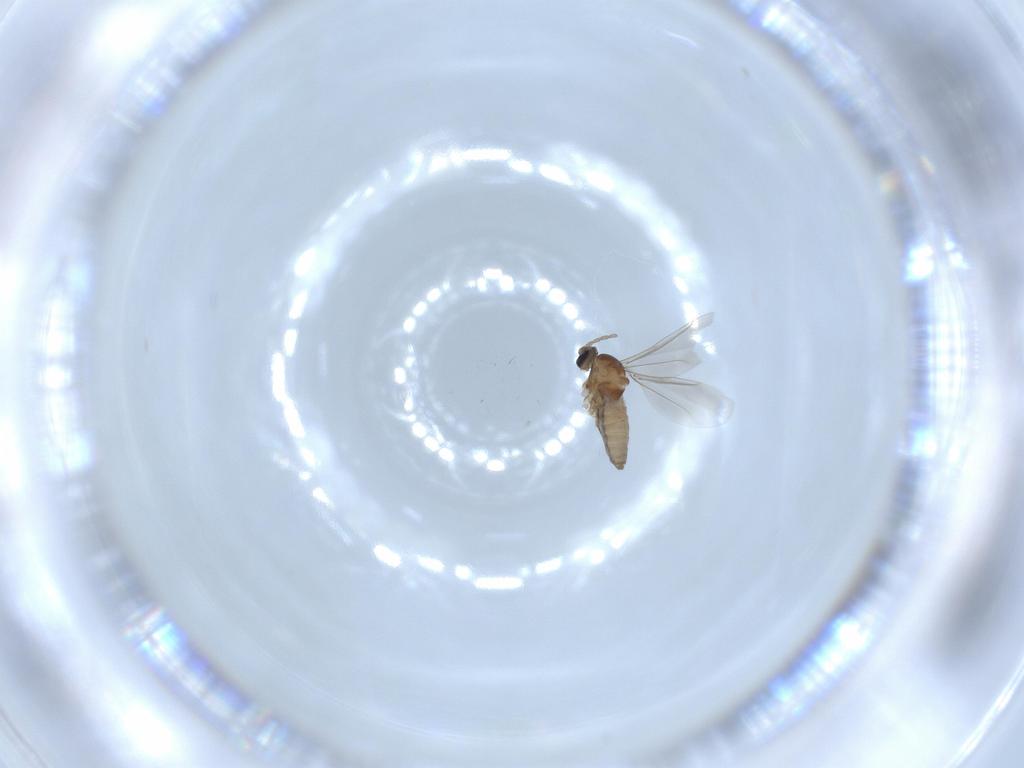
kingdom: Animalia
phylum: Arthropoda
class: Insecta
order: Diptera
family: Cecidomyiidae
